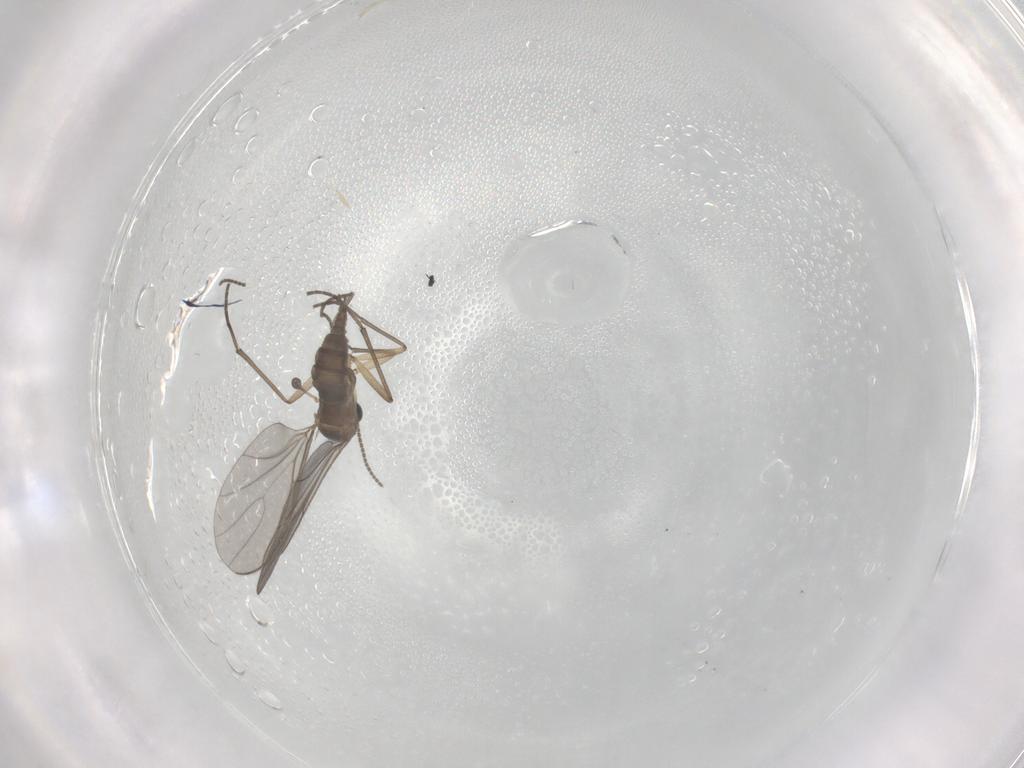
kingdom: Animalia
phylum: Arthropoda
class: Insecta
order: Diptera
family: Sciaridae
